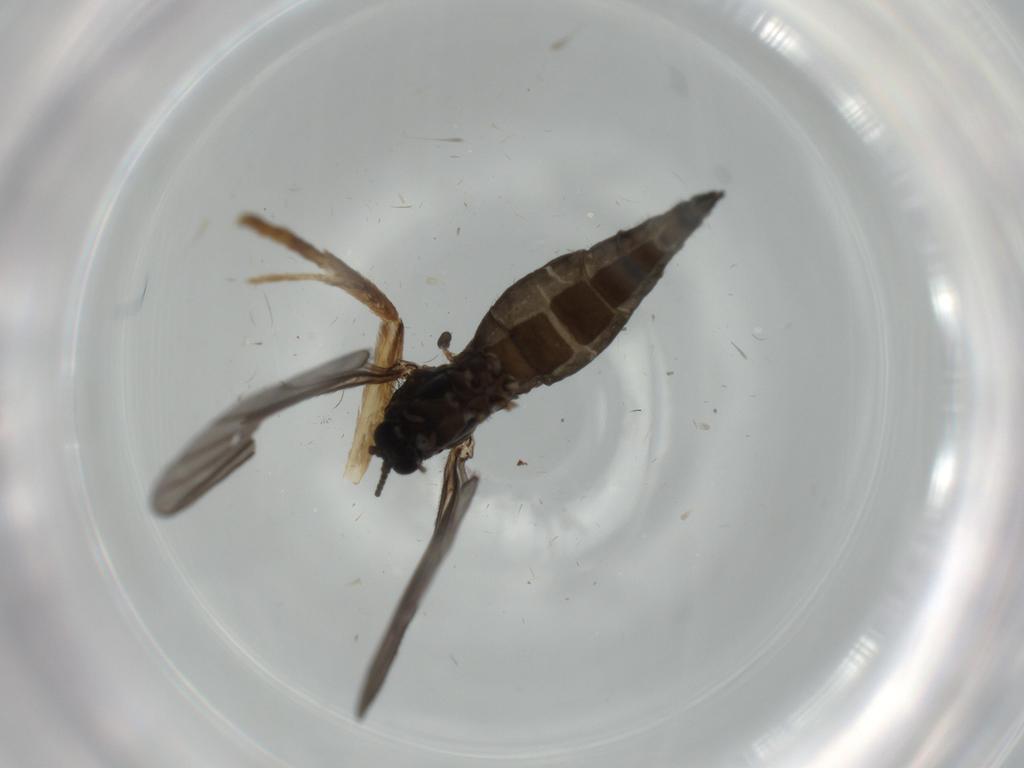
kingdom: Animalia
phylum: Arthropoda
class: Insecta
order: Diptera
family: Sciaridae
